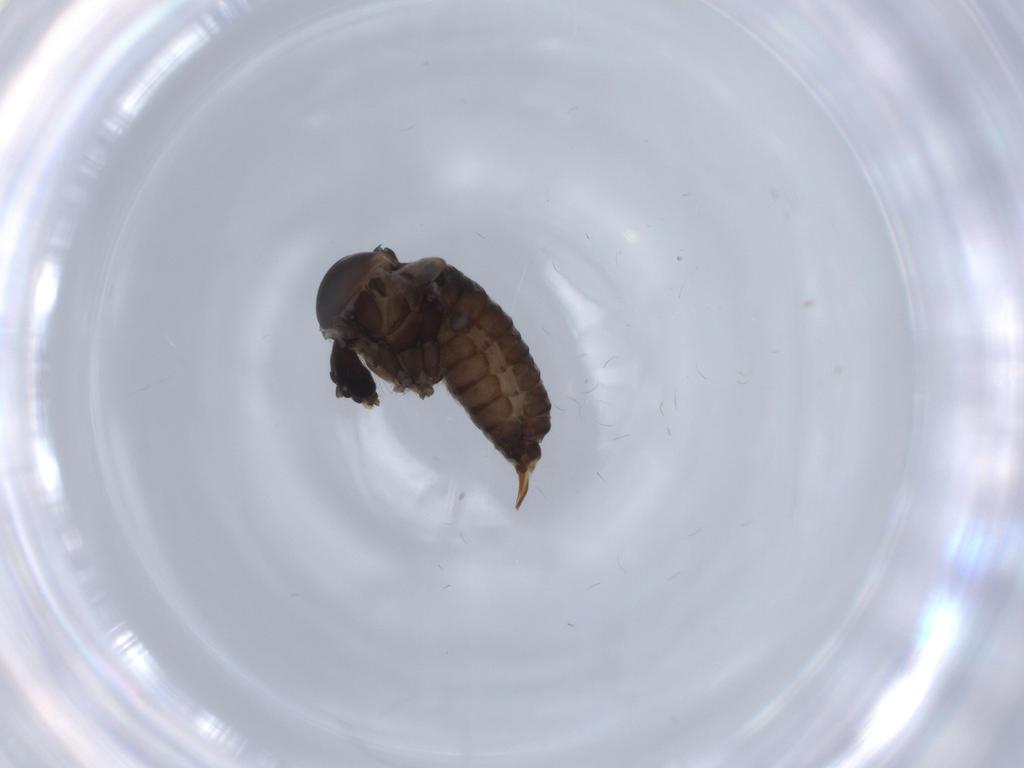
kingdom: Animalia
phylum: Arthropoda
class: Insecta
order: Diptera
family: Psychodidae
